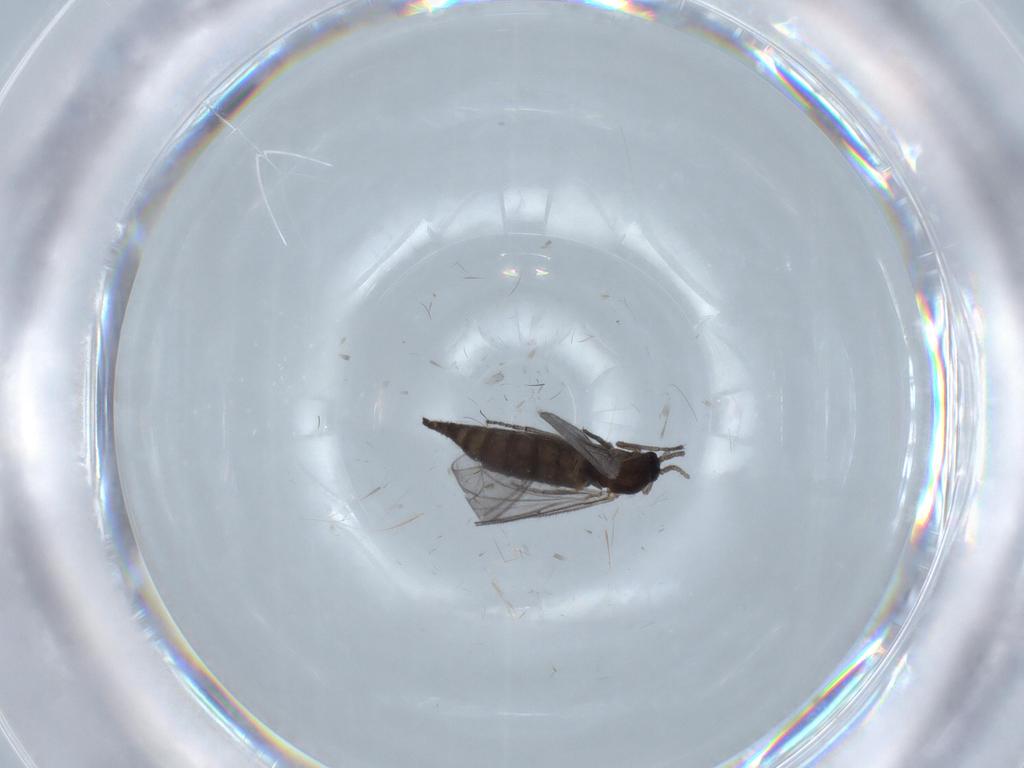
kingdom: Animalia
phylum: Arthropoda
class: Insecta
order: Diptera
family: Sciaridae
